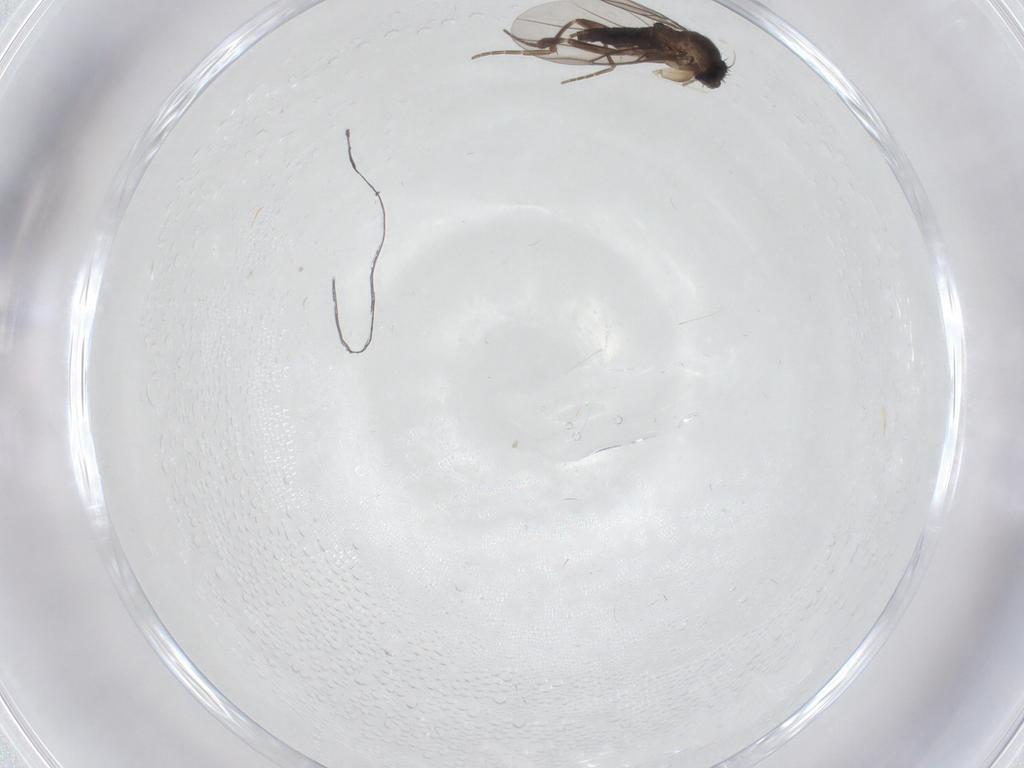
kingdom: Animalia
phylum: Arthropoda
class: Insecta
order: Diptera
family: Phoridae
